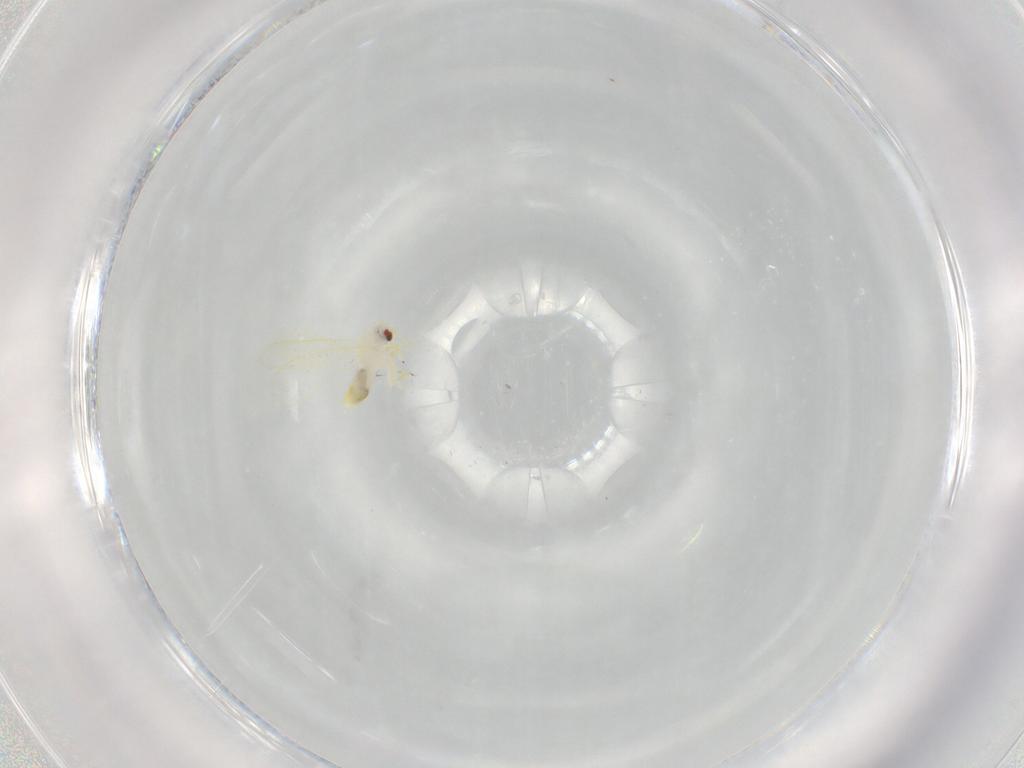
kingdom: Animalia
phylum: Arthropoda
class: Insecta
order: Hemiptera
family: Aleyrodidae
